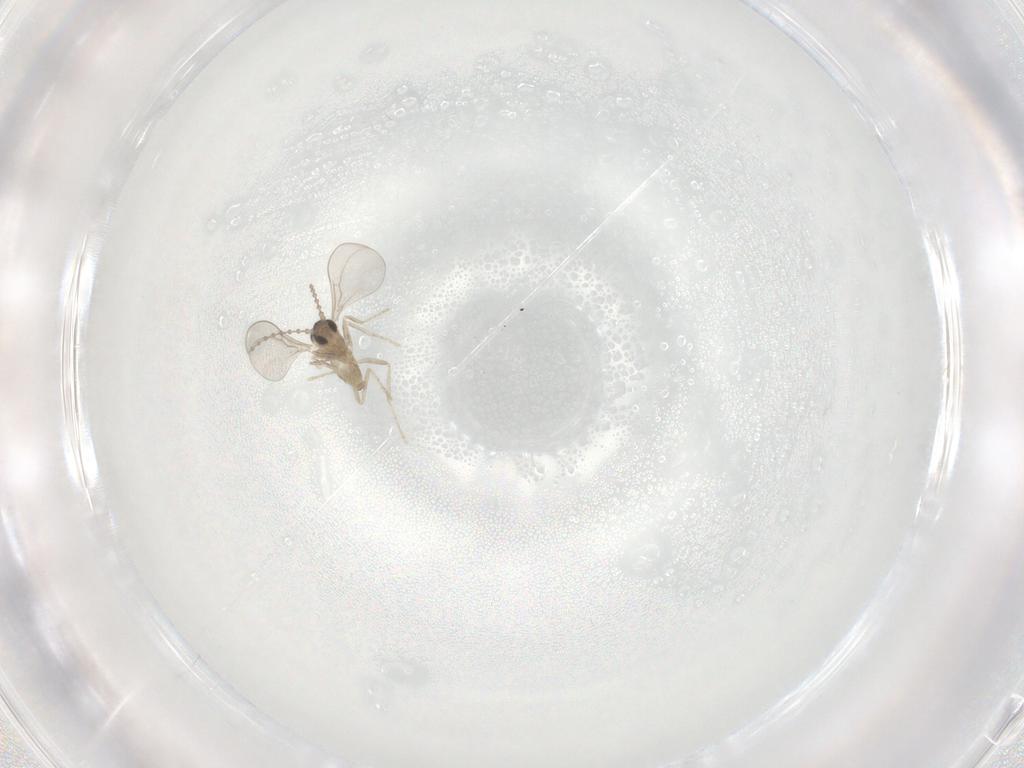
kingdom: Animalia
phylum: Arthropoda
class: Insecta
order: Diptera
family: Cecidomyiidae
